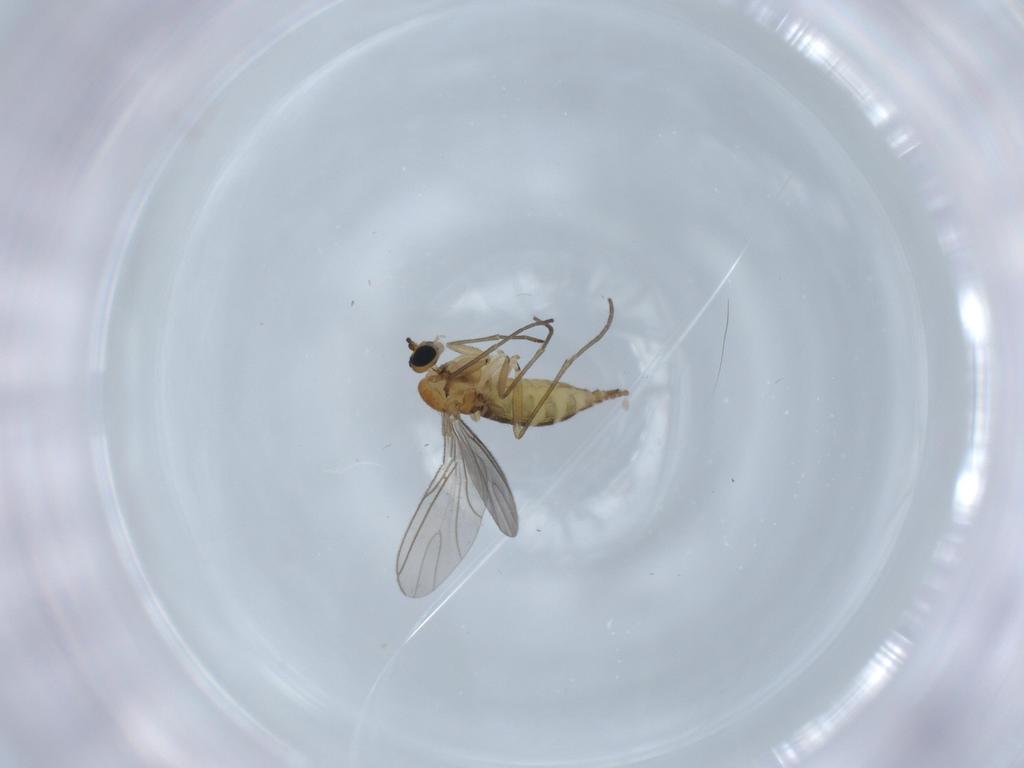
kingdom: Animalia
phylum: Arthropoda
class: Insecta
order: Diptera
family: Sciaridae
